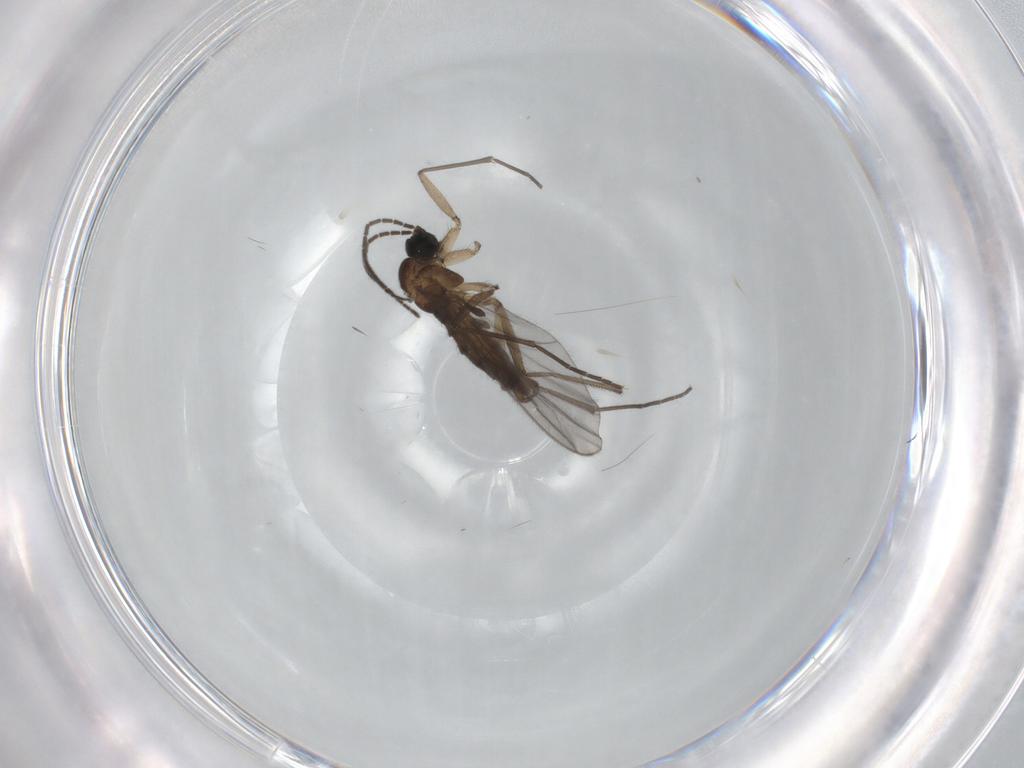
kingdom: Animalia
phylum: Arthropoda
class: Insecta
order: Diptera
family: Sciaridae
